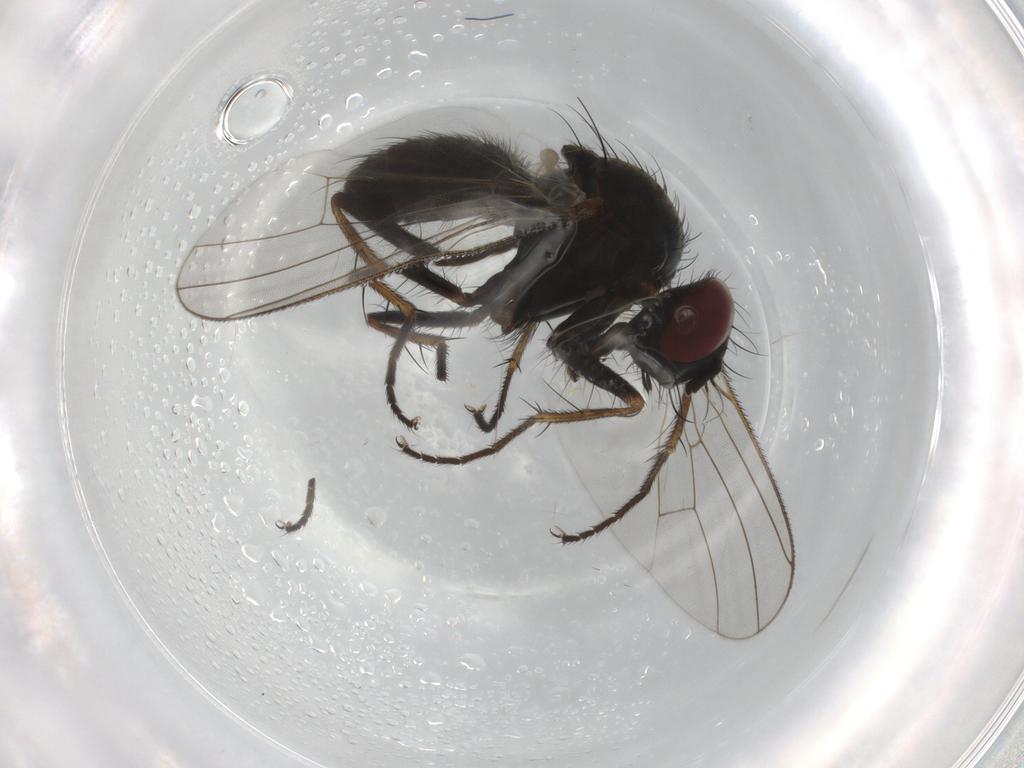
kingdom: Animalia
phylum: Arthropoda
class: Insecta
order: Diptera
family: Muscidae
